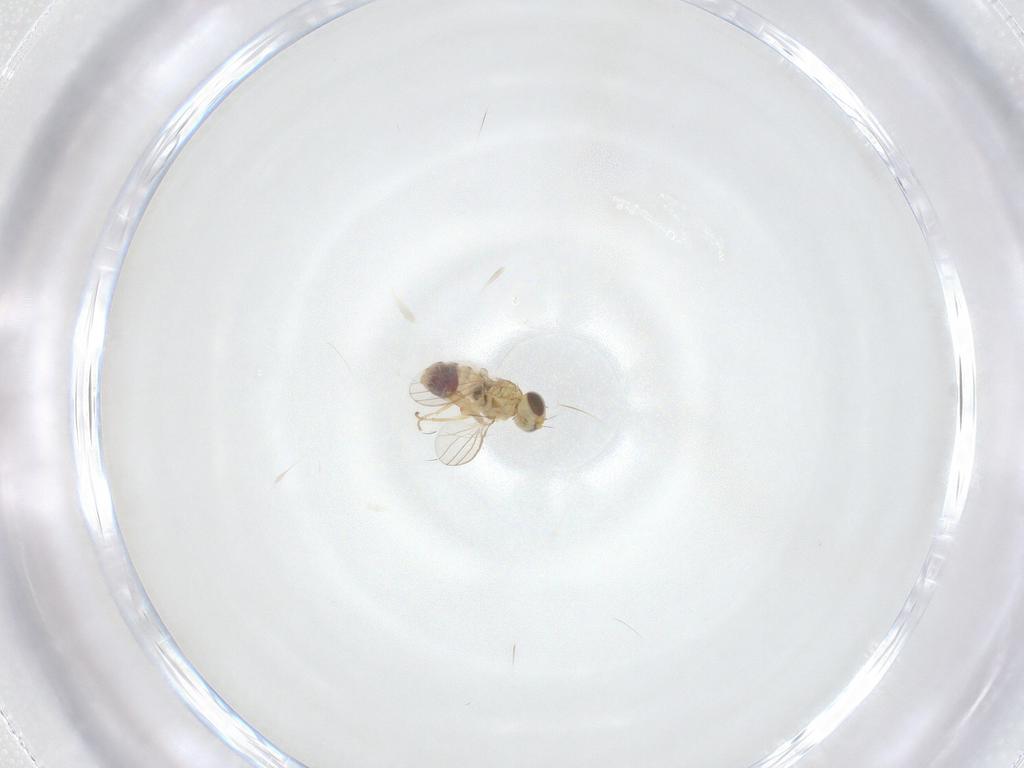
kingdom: Animalia
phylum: Arthropoda
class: Insecta
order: Diptera
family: Chyromyidae
